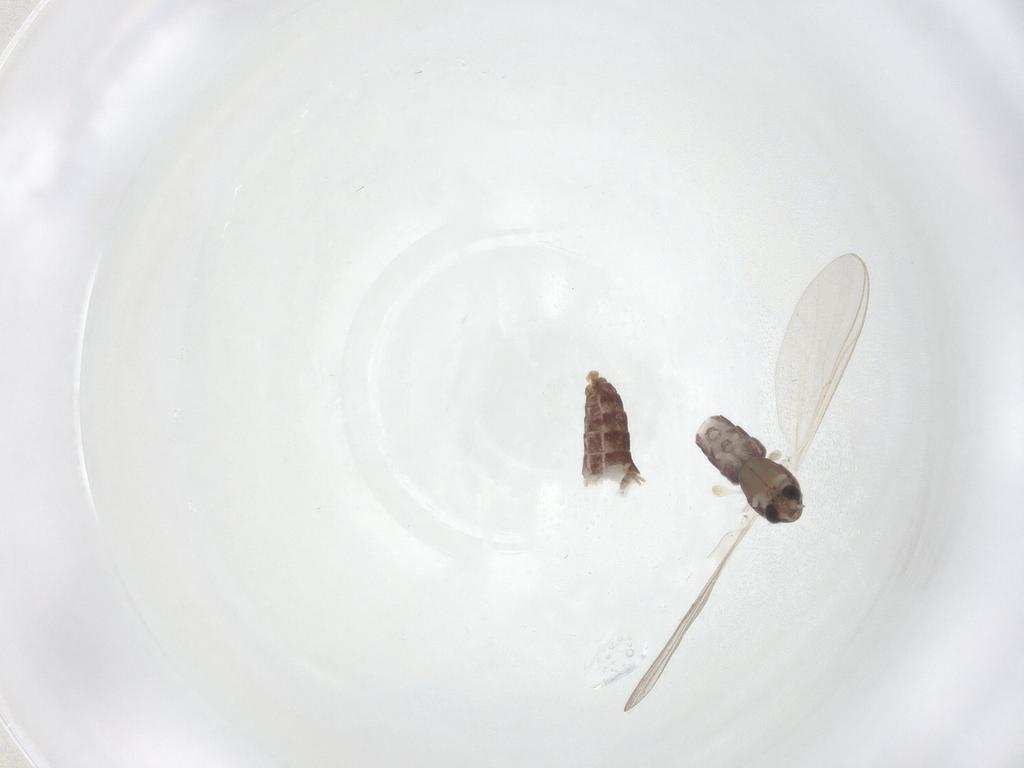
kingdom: Animalia
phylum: Arthropoda
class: Insecta
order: Diptera
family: Chironomidae
